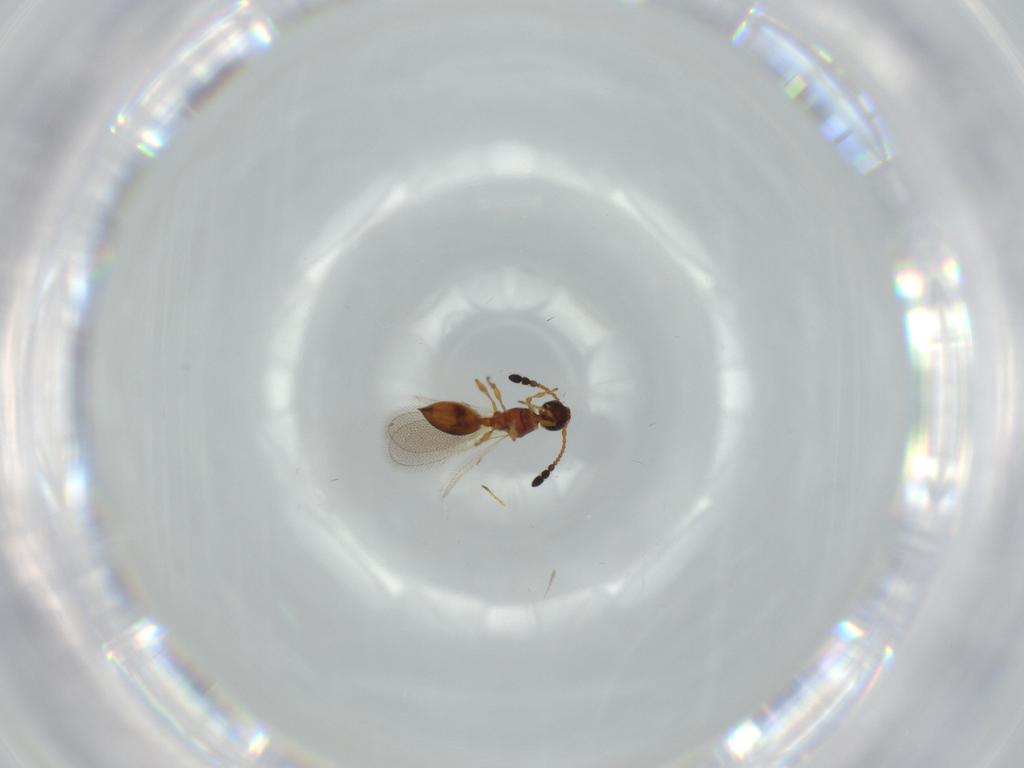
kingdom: Animalia
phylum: Arthropoda
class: Insecta
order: Hymenoptera
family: Diapriidae
